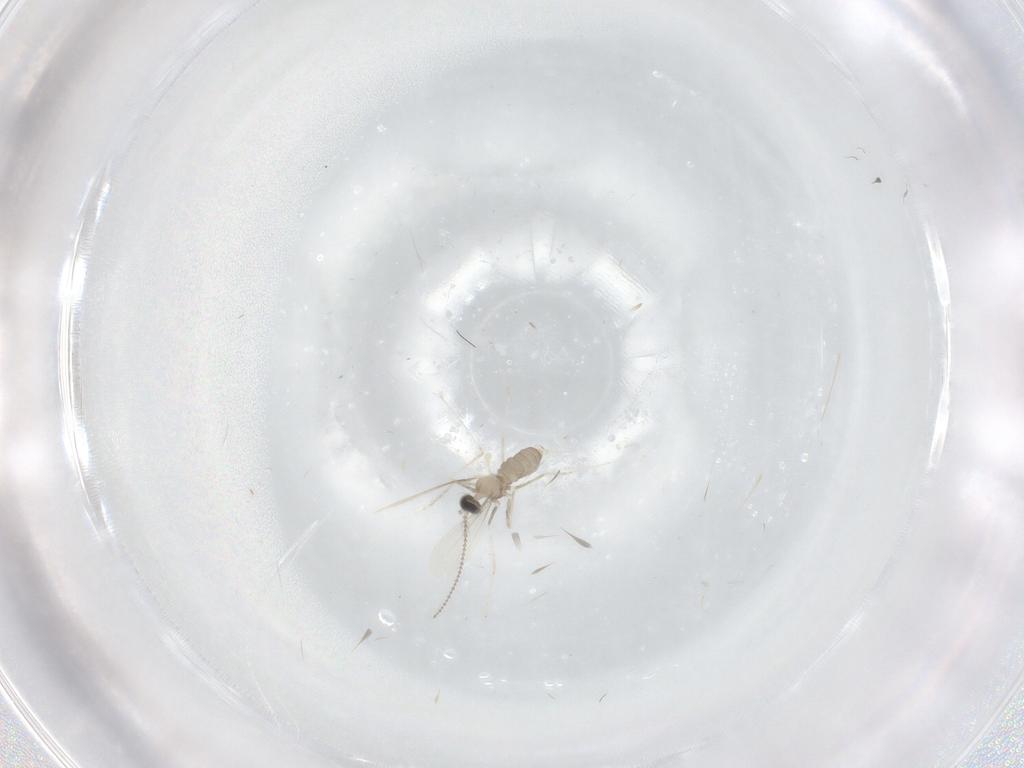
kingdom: Animalia
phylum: Arthropoda
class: Insecta
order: Diptera
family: Cecidomyiidae
